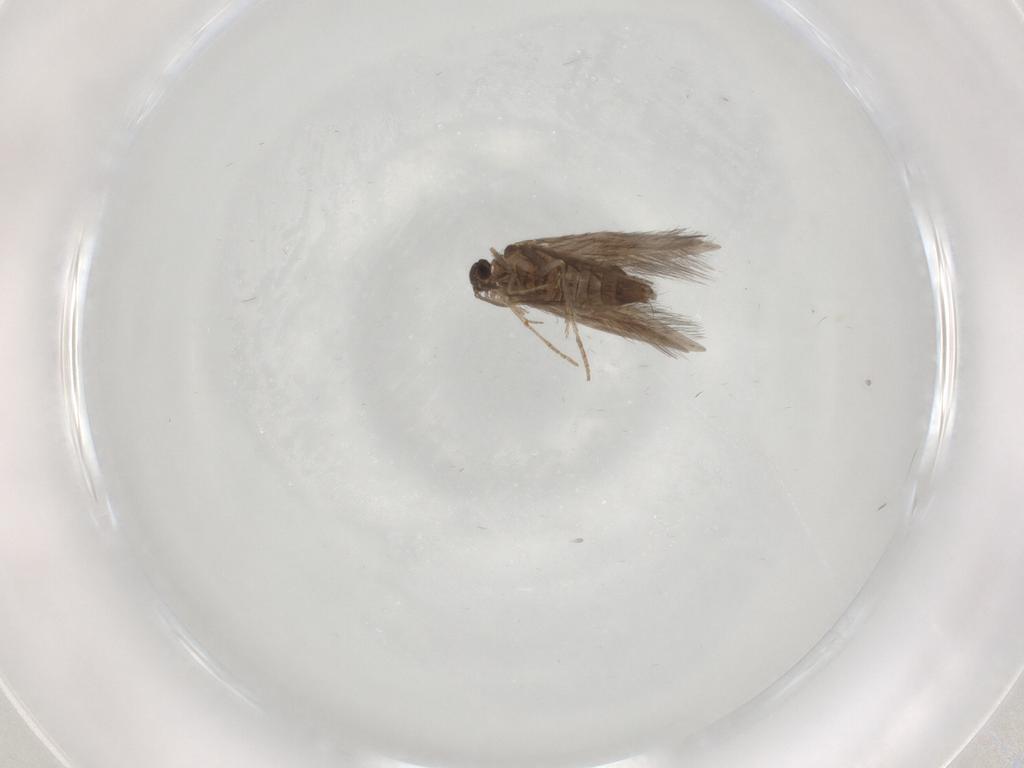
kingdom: Animalia
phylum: Arthropoda
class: Insecta
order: Trichoptera
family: Hydroptilidae
